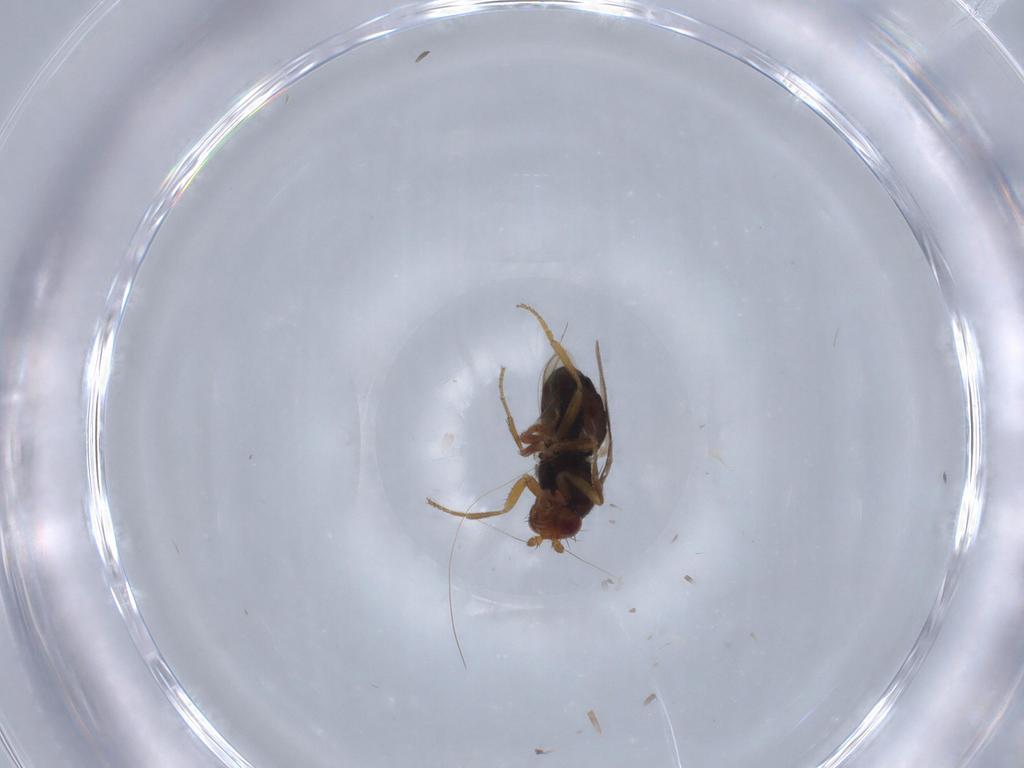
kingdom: Animalia
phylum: Arthropoda
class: Insecta
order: Diptera
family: Sphaeroceridae
